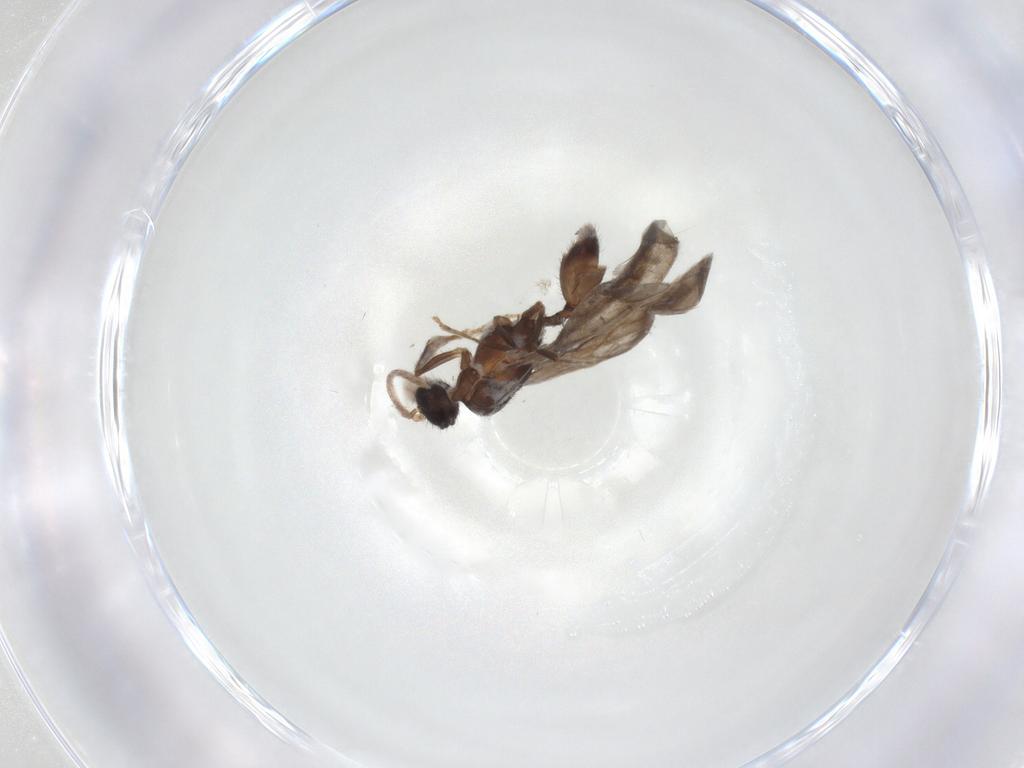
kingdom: Animalia
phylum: Arthropoda
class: Insecta
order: Hymenoptera
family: Formicidae
